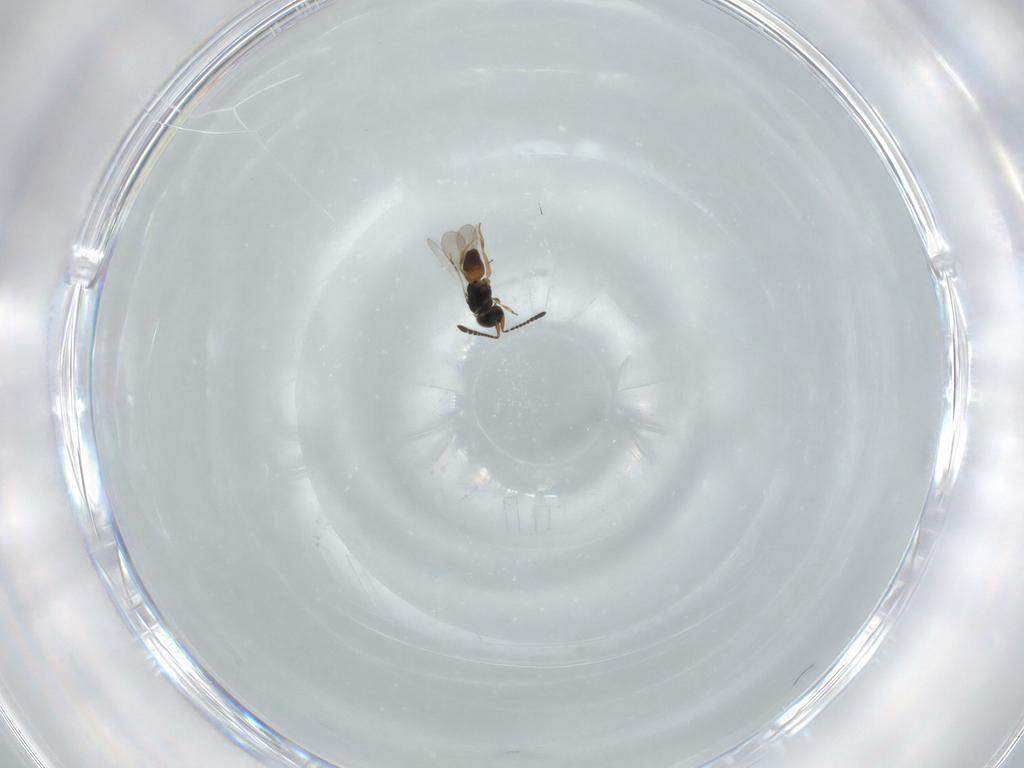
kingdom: Animalia
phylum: Arthropoda
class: Insecta
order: Hymenoptera
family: Ceraphronidae
